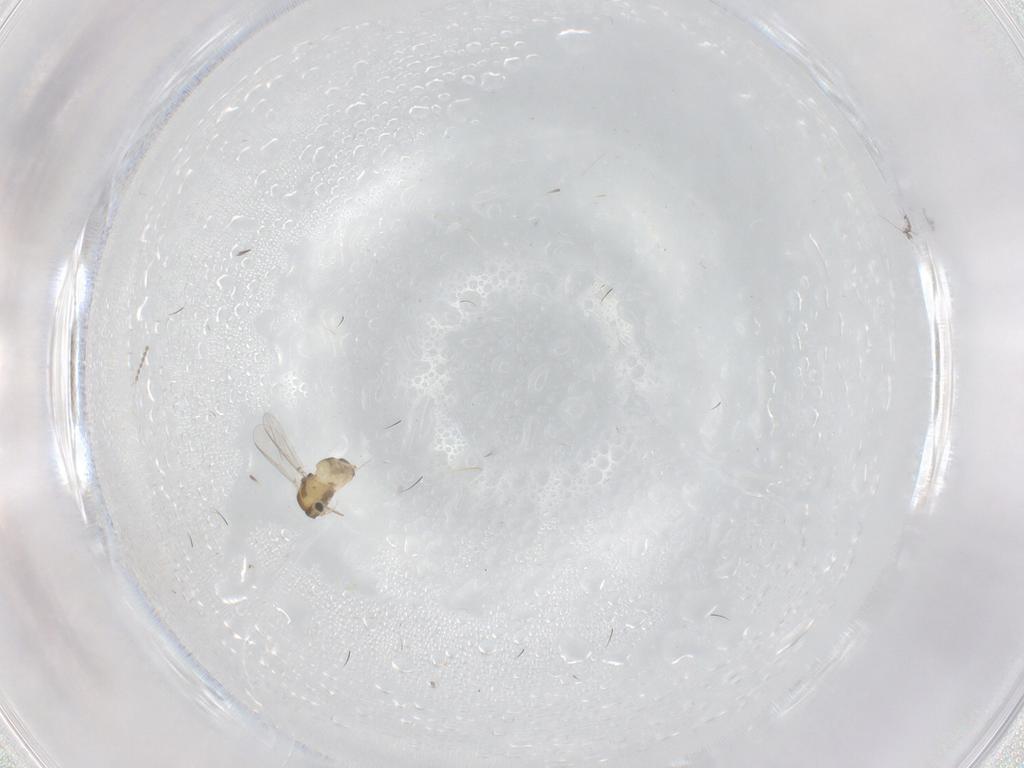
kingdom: Animalia
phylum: Arthropoda
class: Insecta
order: Diptera
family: Chironomidae
